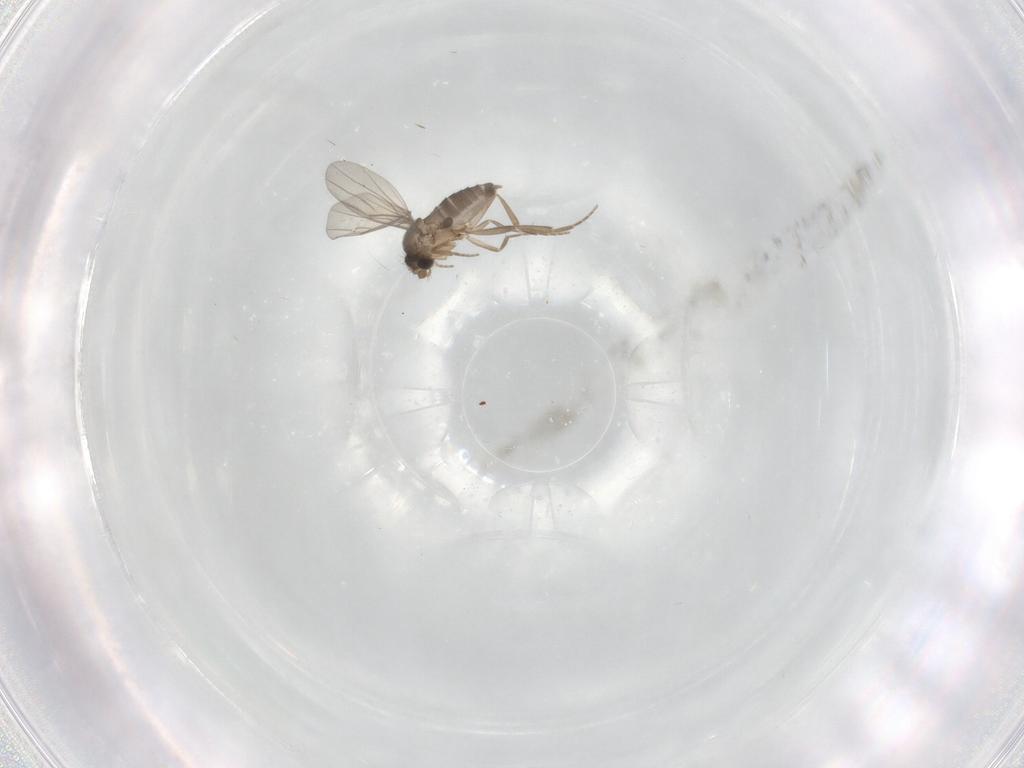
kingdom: Animalia
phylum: Arthropoda
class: Insecta
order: Diptera
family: Phoridae
